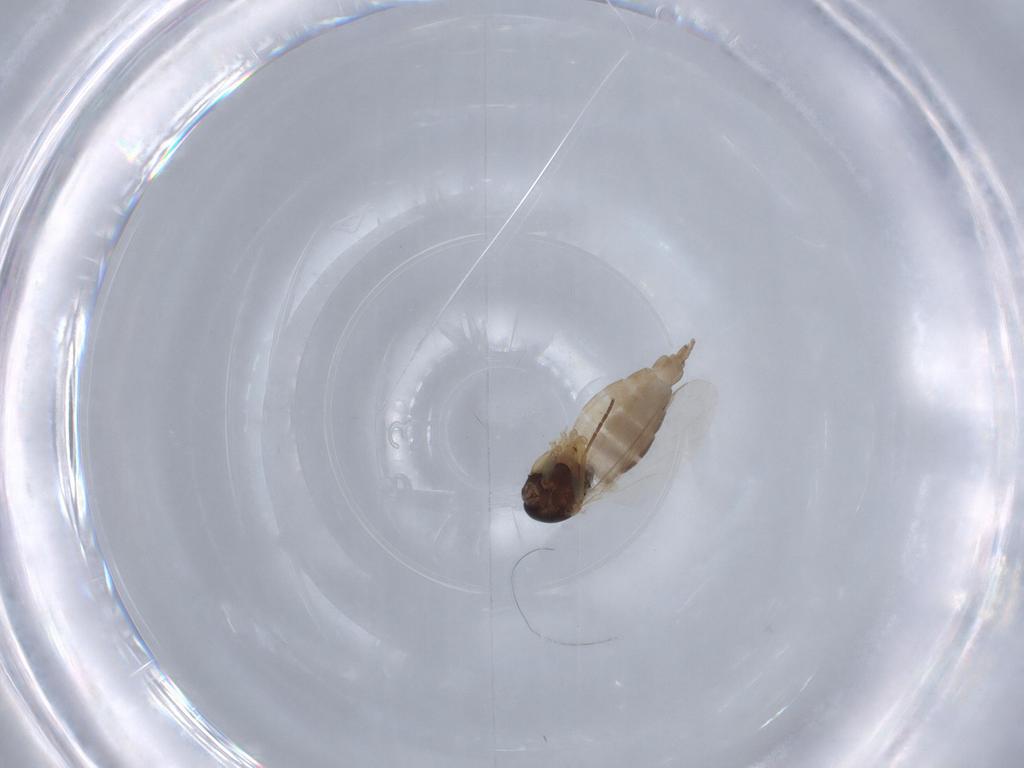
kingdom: Animalia
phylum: Arthropoda
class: Insecta
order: Diptera
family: Sciaridae
